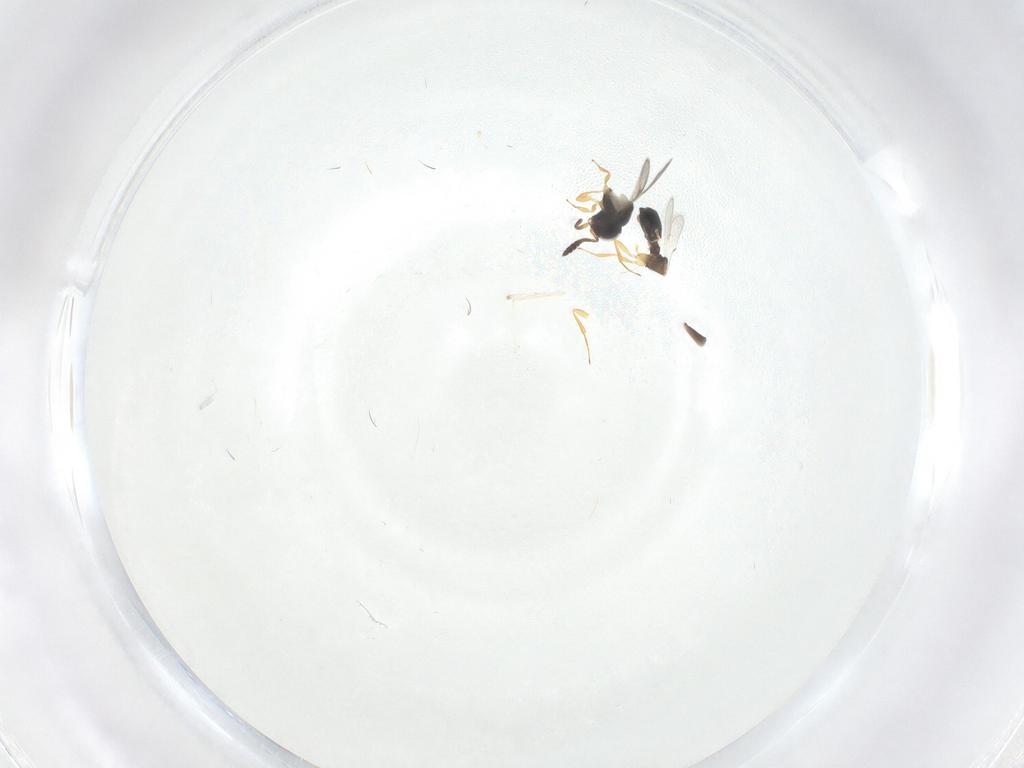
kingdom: Animalia
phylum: Arthropoda
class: Insecta
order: Hymenoptera
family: Scelionidae
